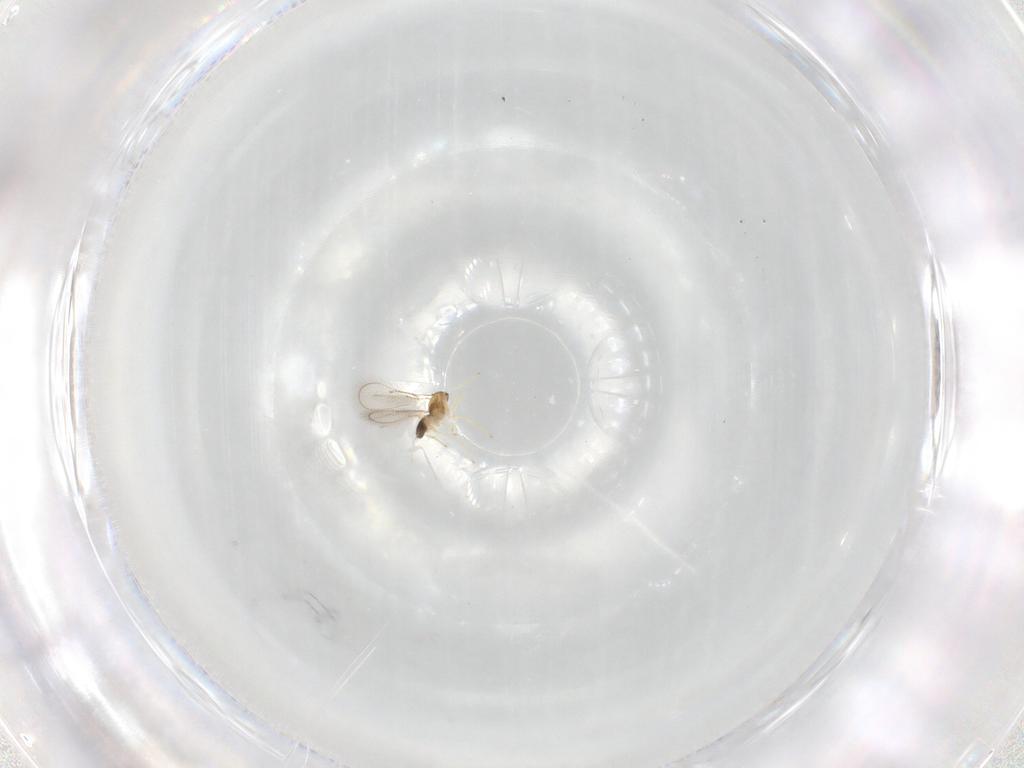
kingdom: Animalia
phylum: Arthropoda
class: Insecta
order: Hymenoptera
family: Eulophidae
